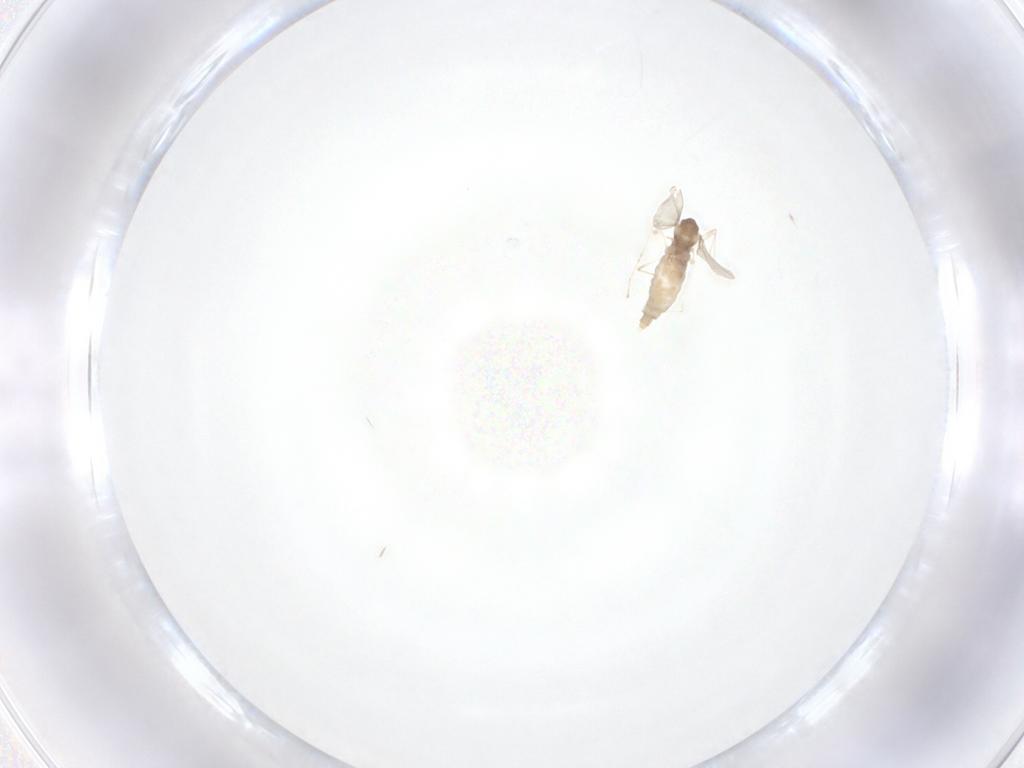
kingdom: Animalia
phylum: Arthropoda
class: Insecta
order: Diptera
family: Cecidomyiidae
